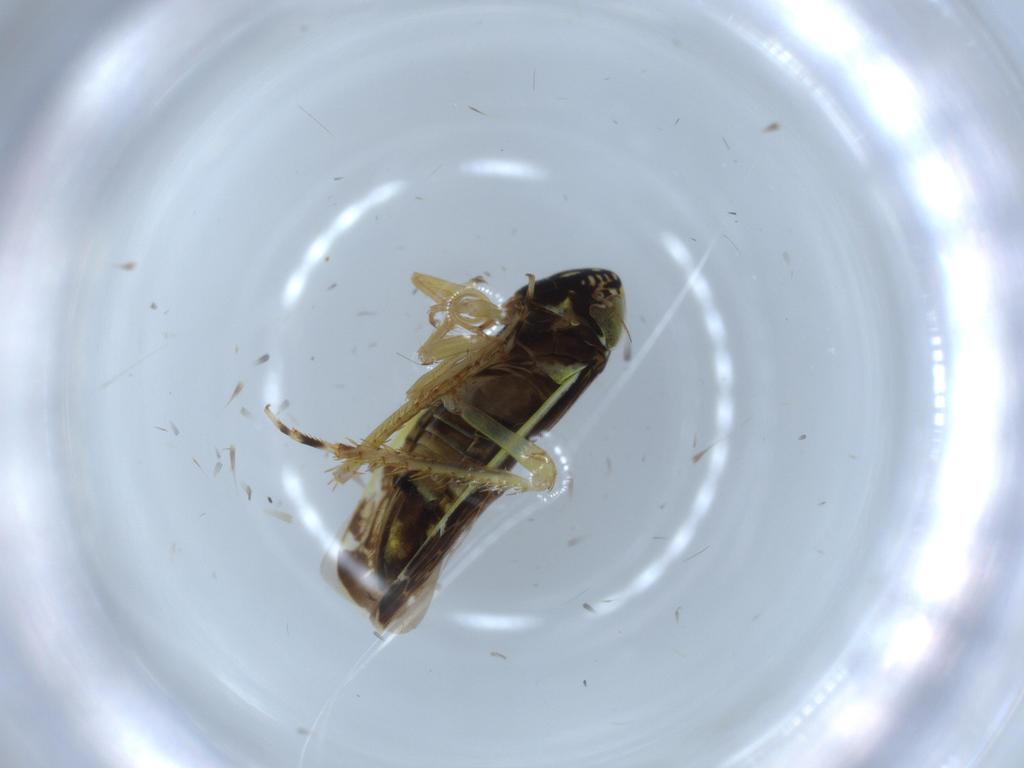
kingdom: Animalia
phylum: Arthropoda
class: Insecta
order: Hemiptera
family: Cicadellidae
